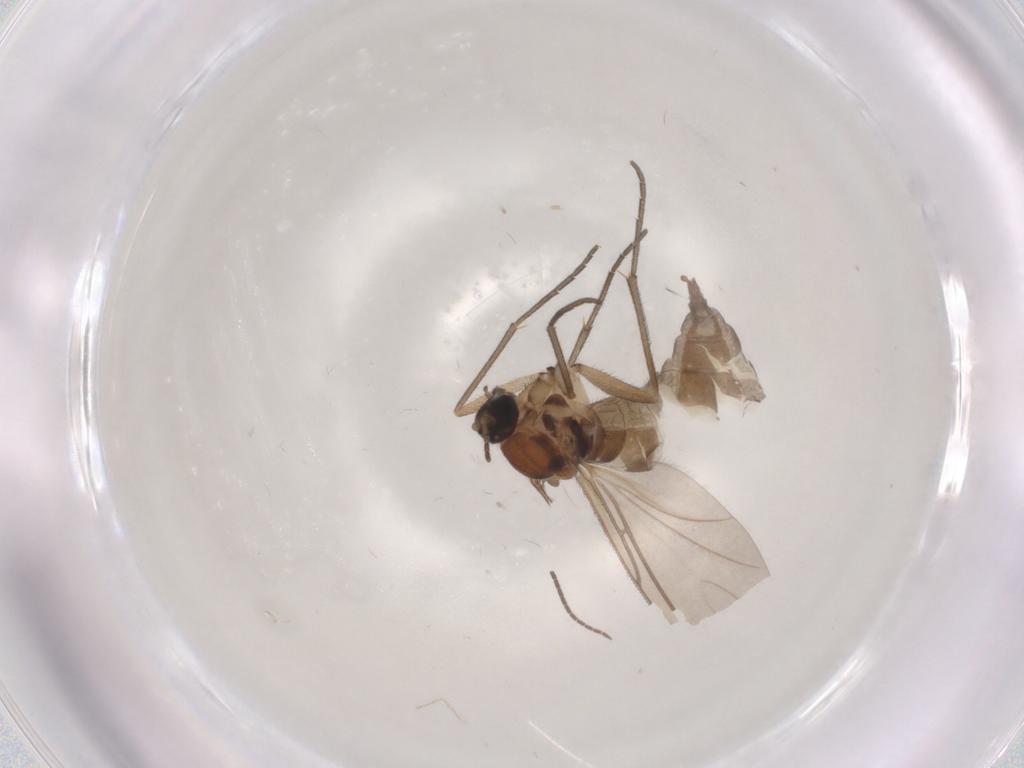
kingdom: Animalia
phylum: Arthropoda
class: Insecta
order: Diptera
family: Sciaridae
